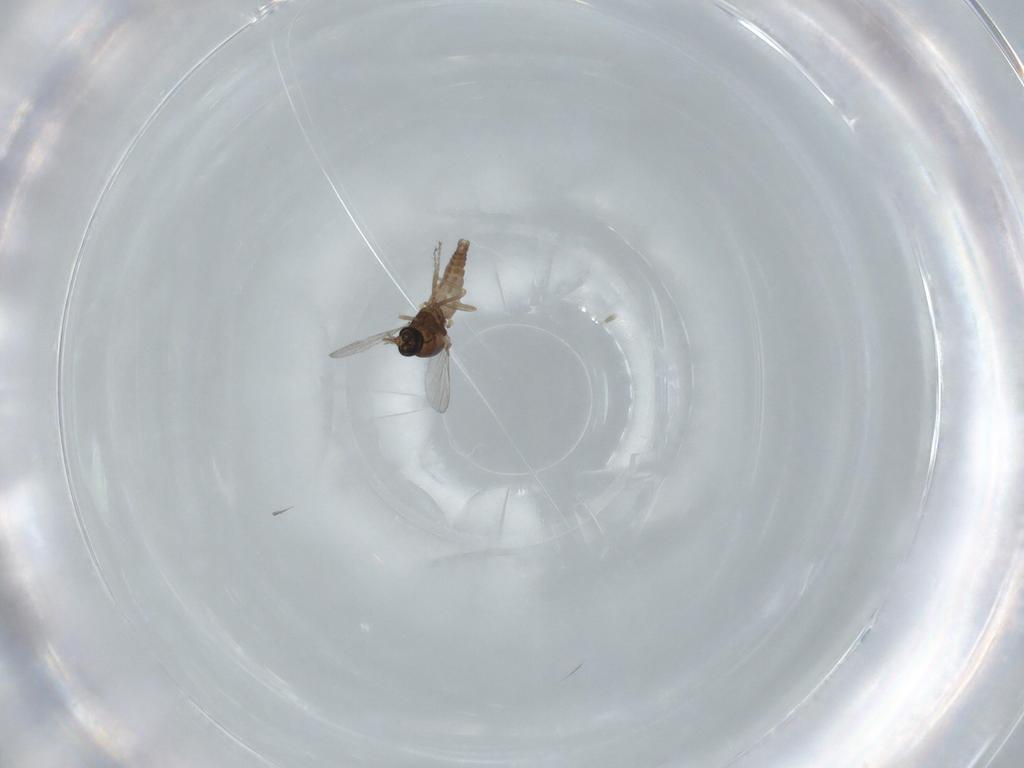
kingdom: Animalia
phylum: Arthropoda
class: Insecta
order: Diptera
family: Ceratopogonidae
